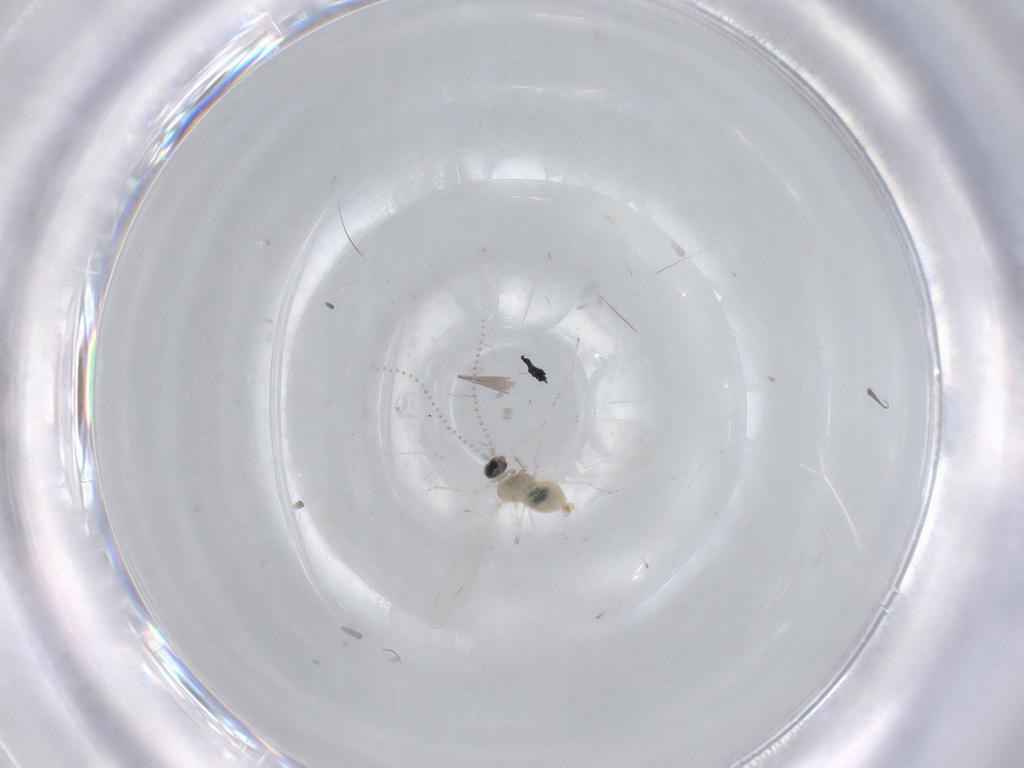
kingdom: Animalia
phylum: Arthropoda
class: Insecta
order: Diptera
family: Cecidomyiidae
